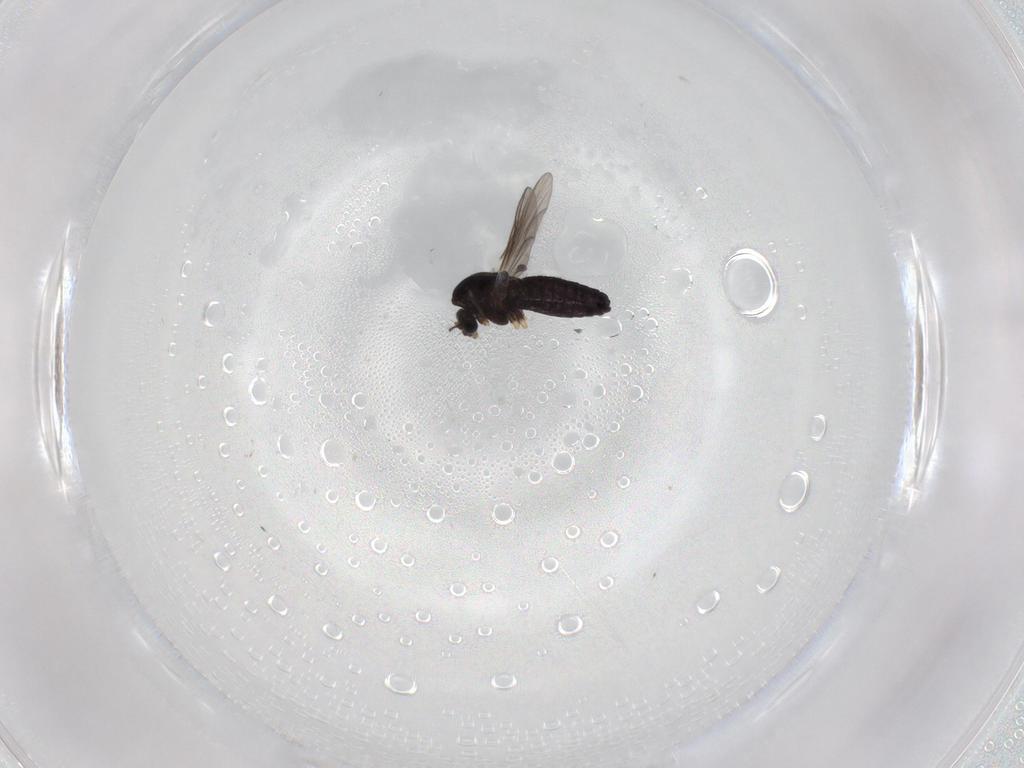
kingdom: Animalia
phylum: Arthropoda
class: Insecta
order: Diptera
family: Chironomidae
